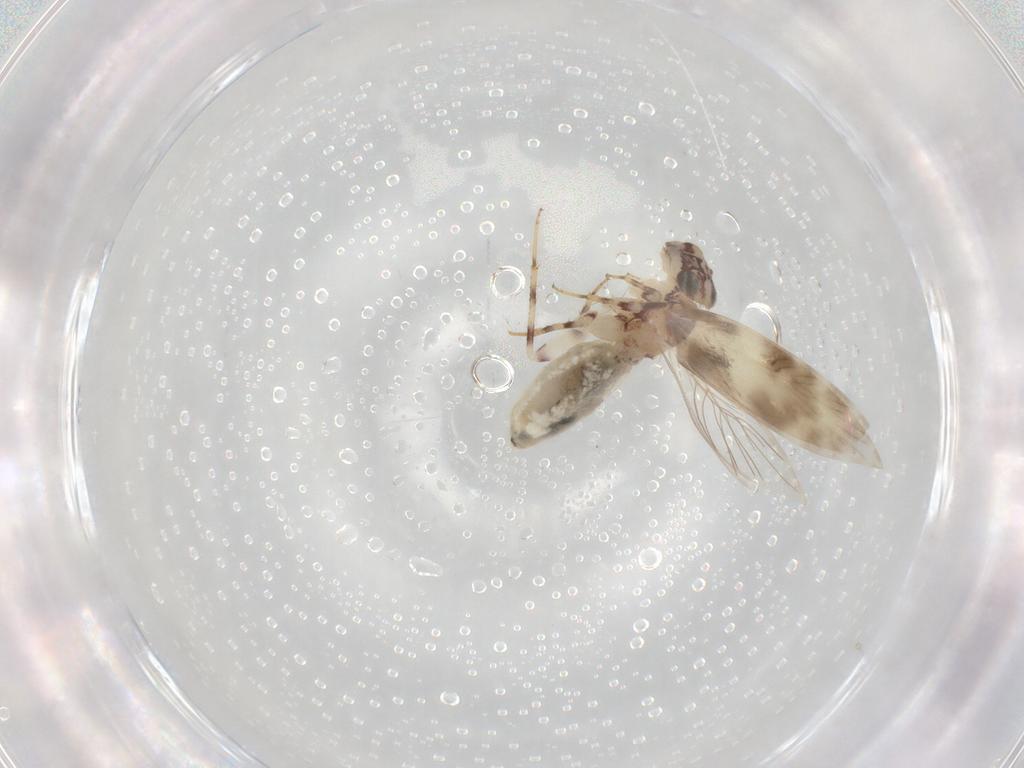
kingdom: Animalia
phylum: Arthropoda
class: Insecta
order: Psocodea
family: Lepidopsocidae
